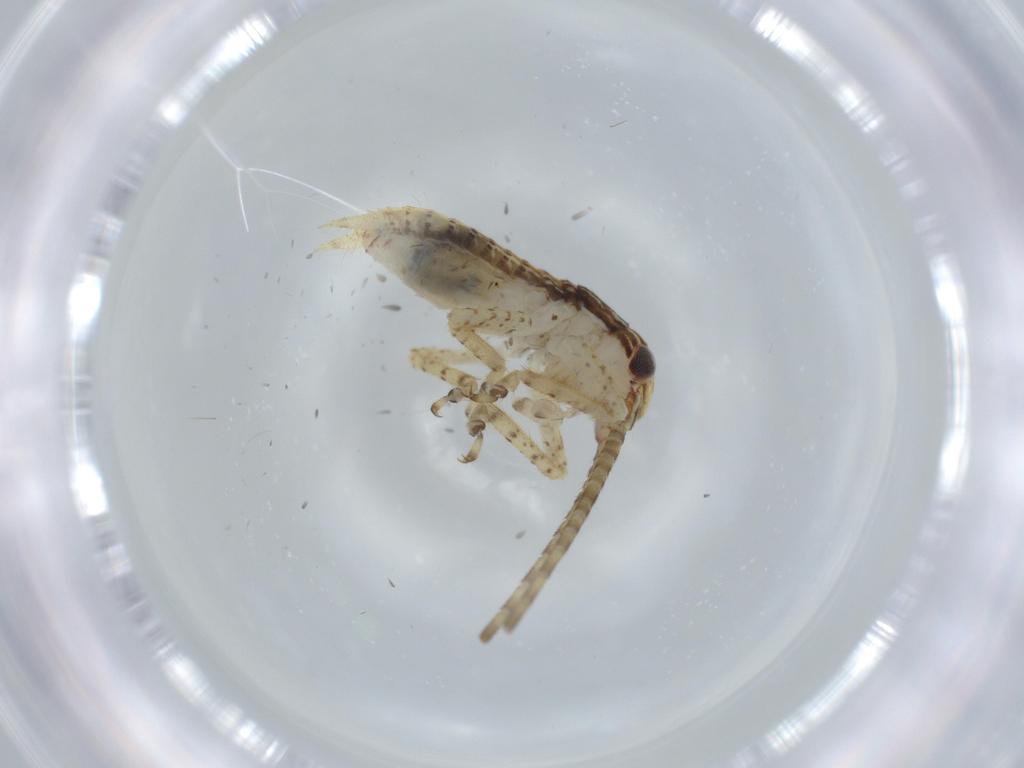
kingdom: Animalia
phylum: Arthropoda
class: Insecta
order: Orthoptera
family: Gryllidae
